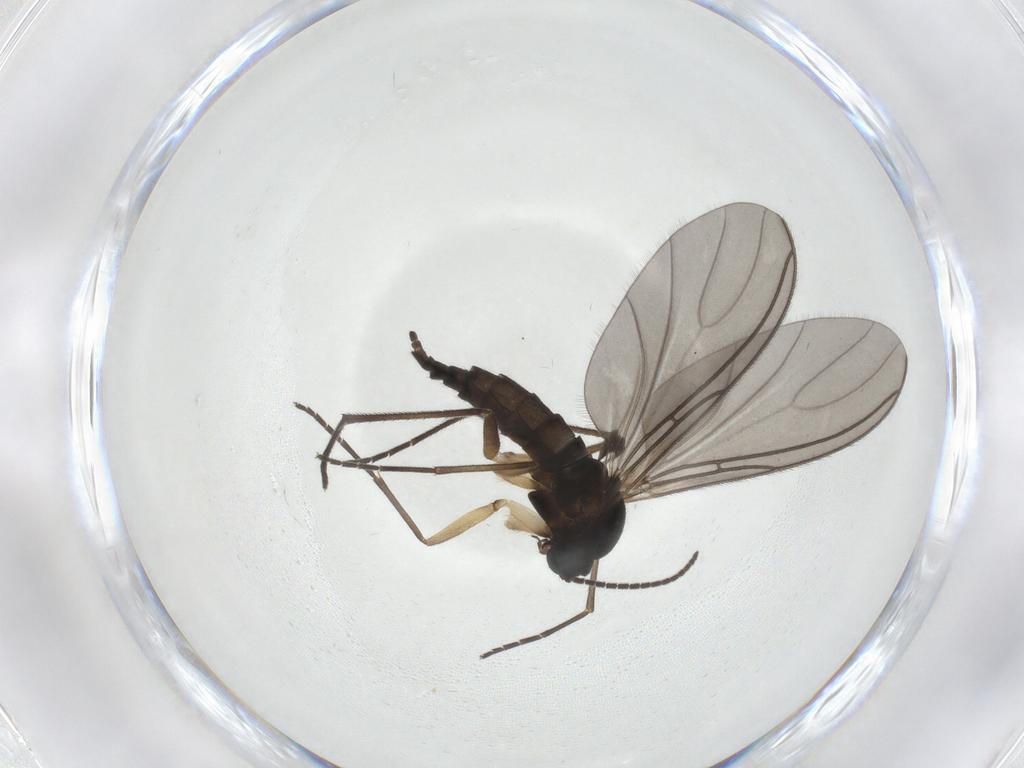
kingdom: Animalia
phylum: Arthropoda
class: Insecta
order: Diptera
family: Sciaridae
